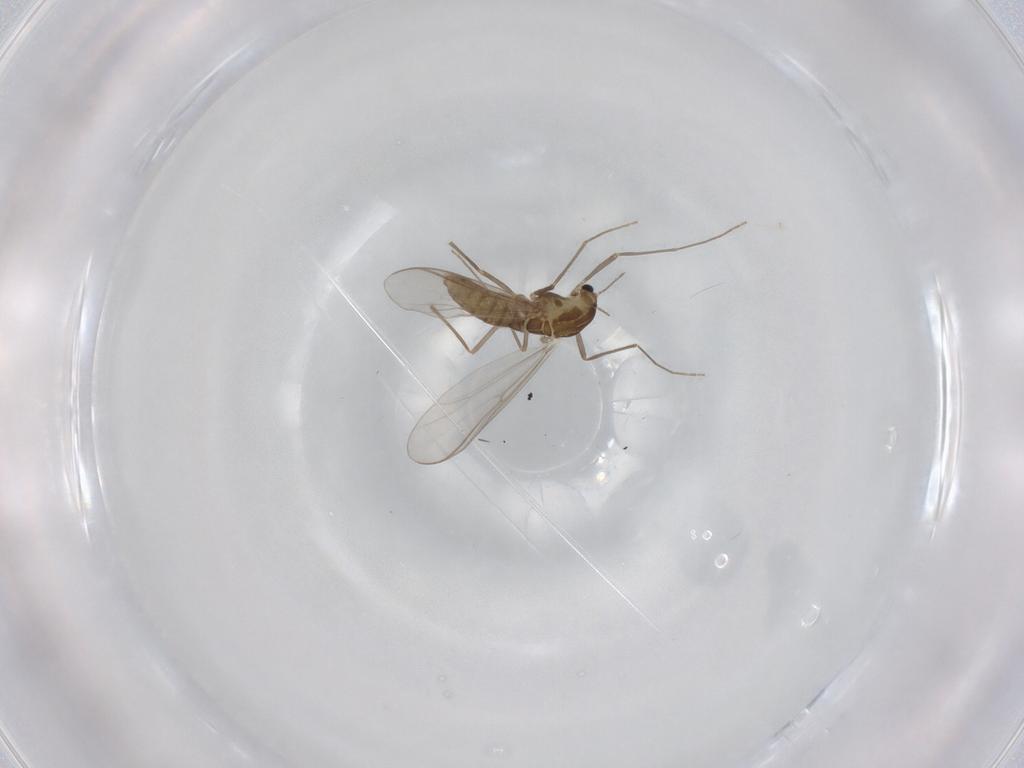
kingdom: Animalia
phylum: Arthropoda
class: Insecta
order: Diptera
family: Chironomidae
